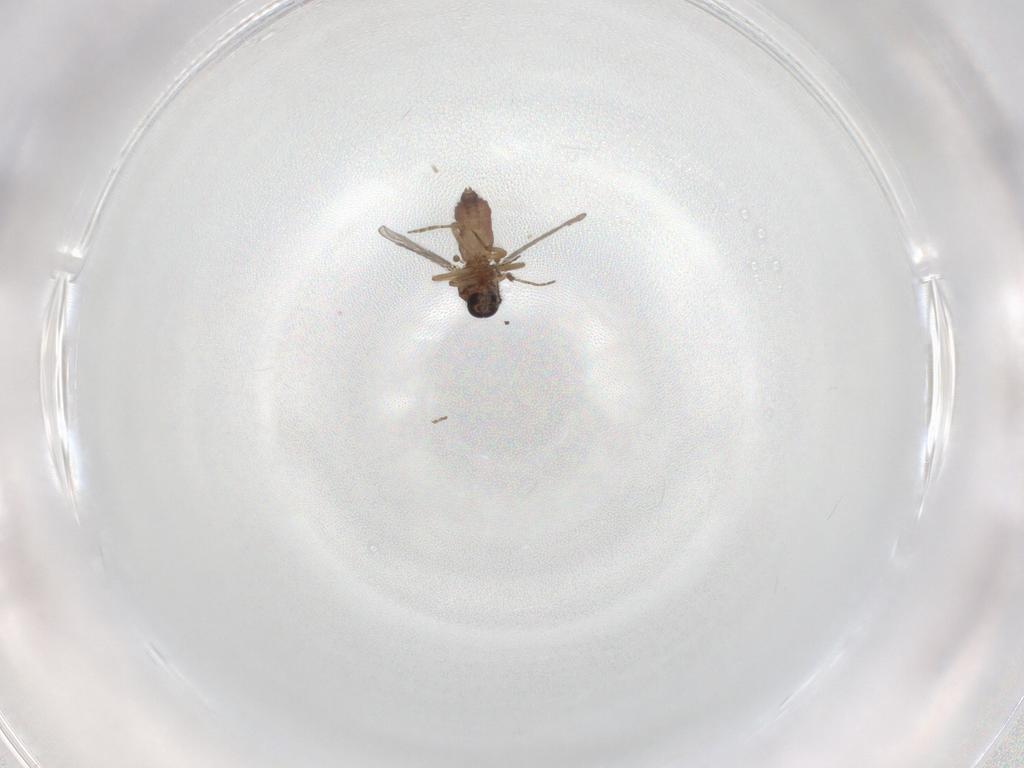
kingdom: Animalia
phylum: Arthropoda
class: Insecta
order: Diptera
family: Dolichopodidae
